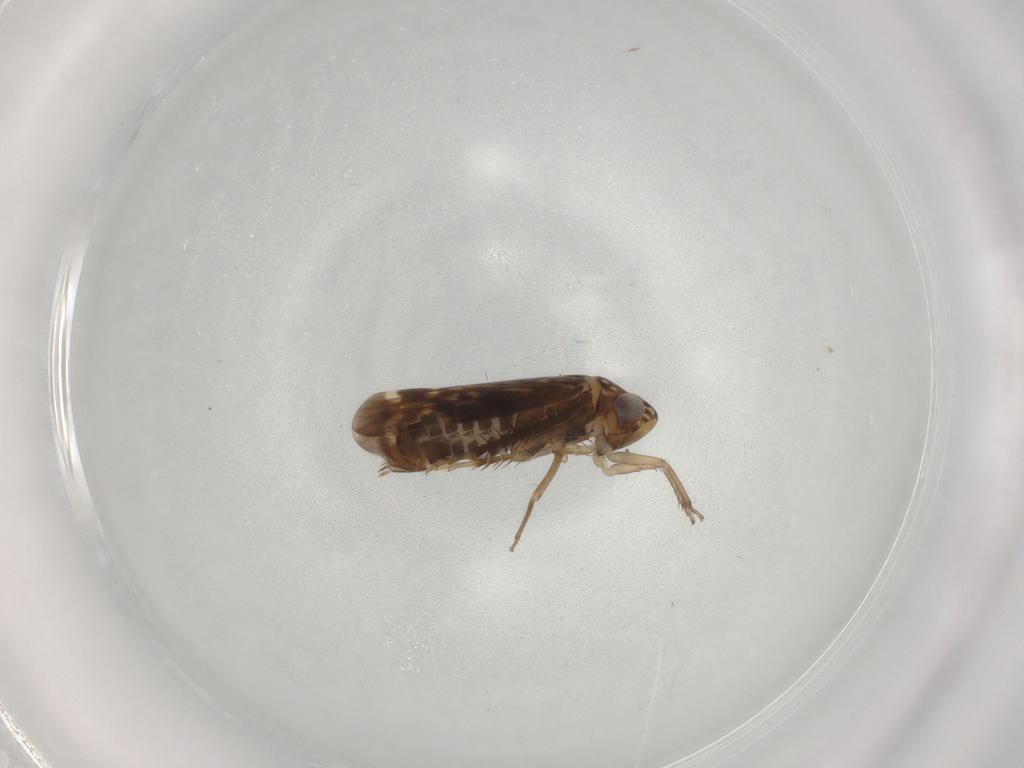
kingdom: Animalia
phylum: Arthropoda
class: Insecta
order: Hemiptera
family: Cicadellidae
